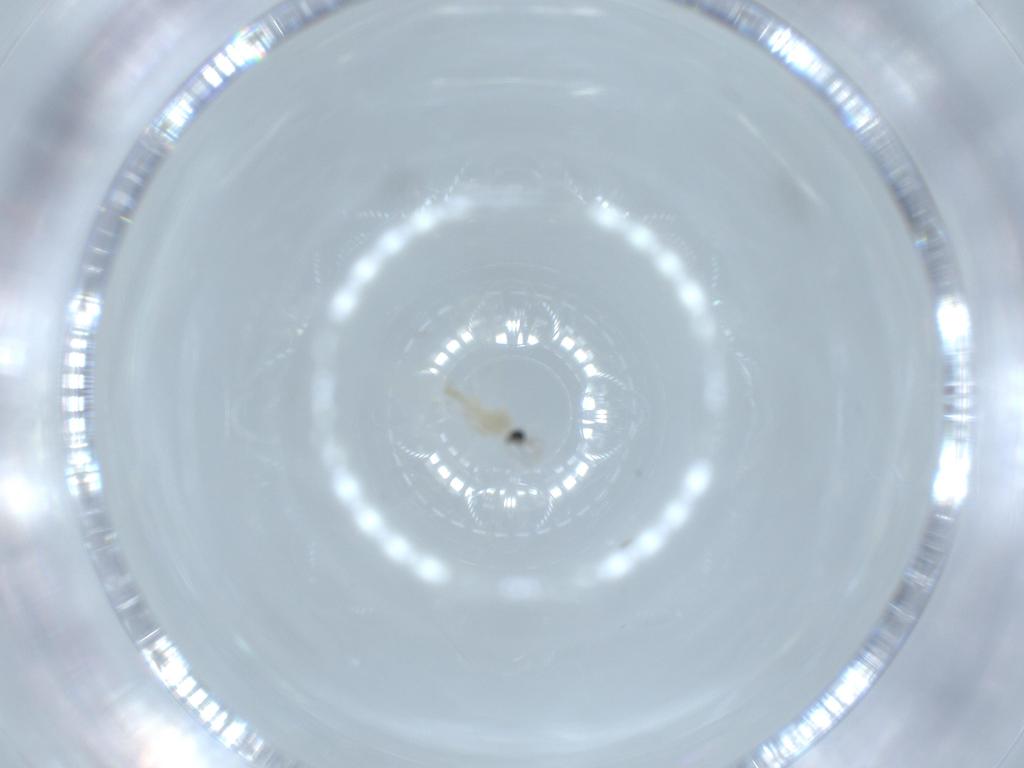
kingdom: Animalia
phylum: Arthropoda
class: Insecta
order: Diptera
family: Cecidomyiidae
